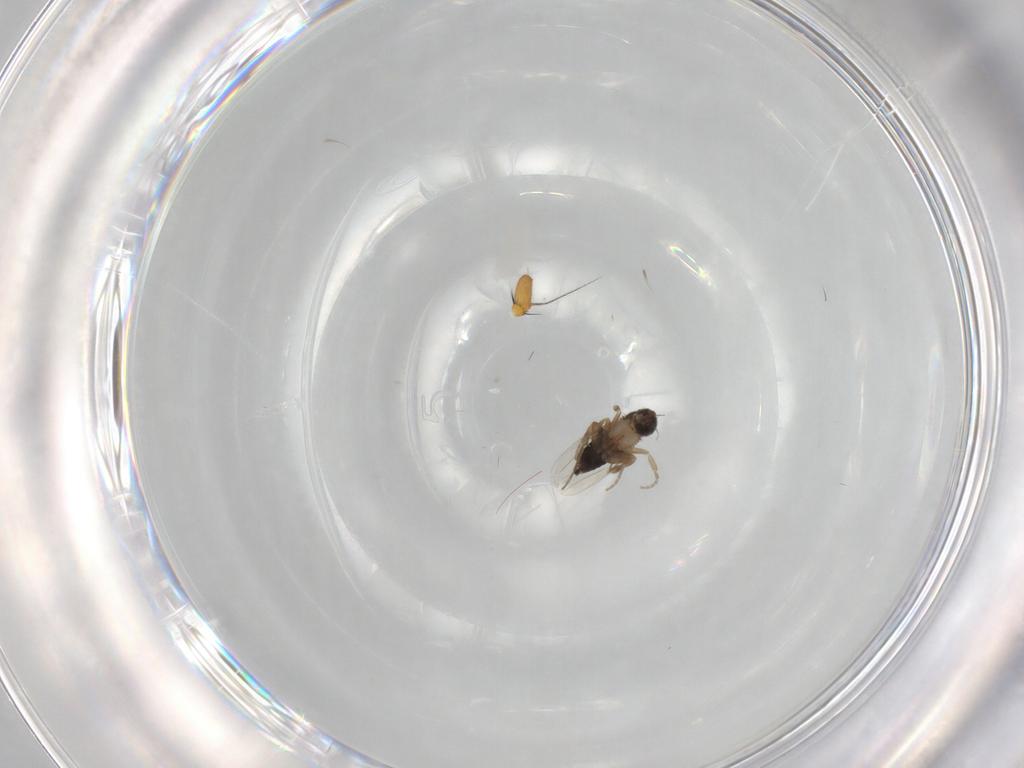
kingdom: Animalia
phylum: Arthropoda
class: Insecta
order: Diptera
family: Phoridae
